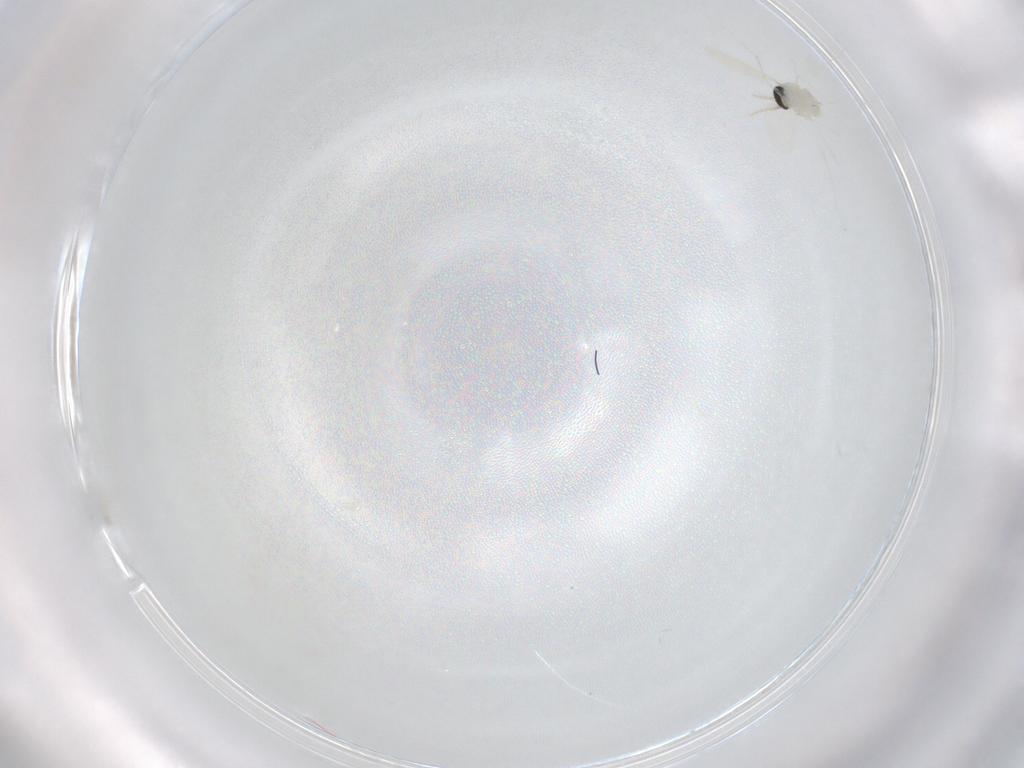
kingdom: Animalia
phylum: Arthropoda
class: Insecta
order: Diptera
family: Cecidomyiidae
